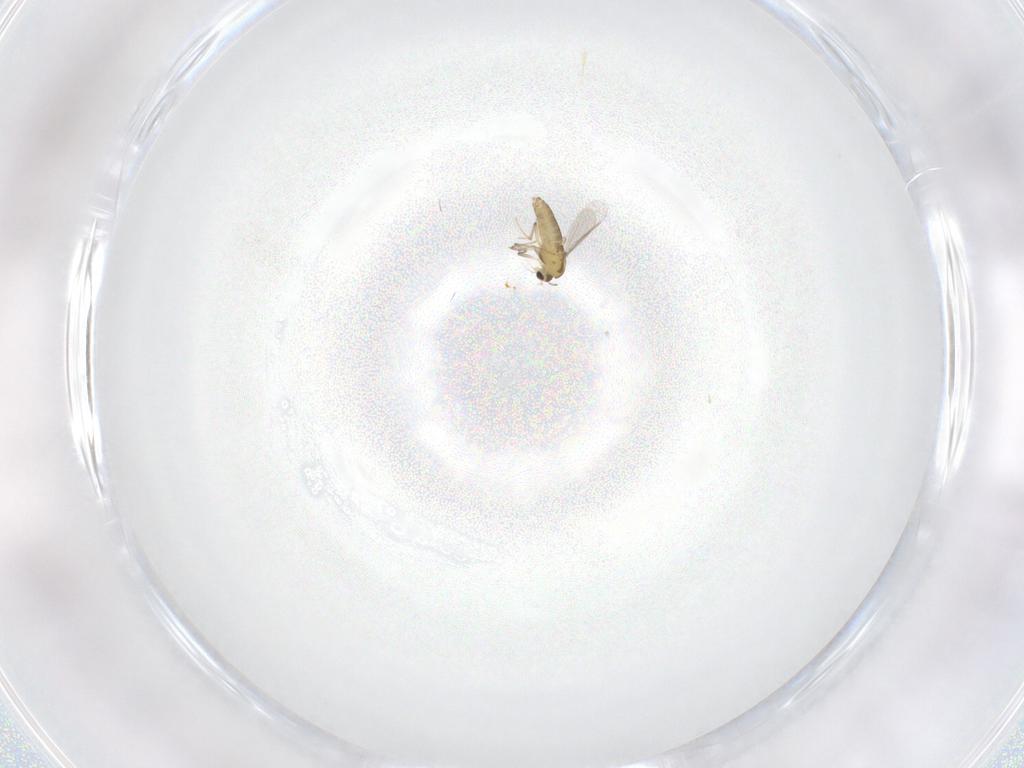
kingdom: Animalia
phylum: Arthropoda
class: Insecta
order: Diptera
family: Chironomidae
